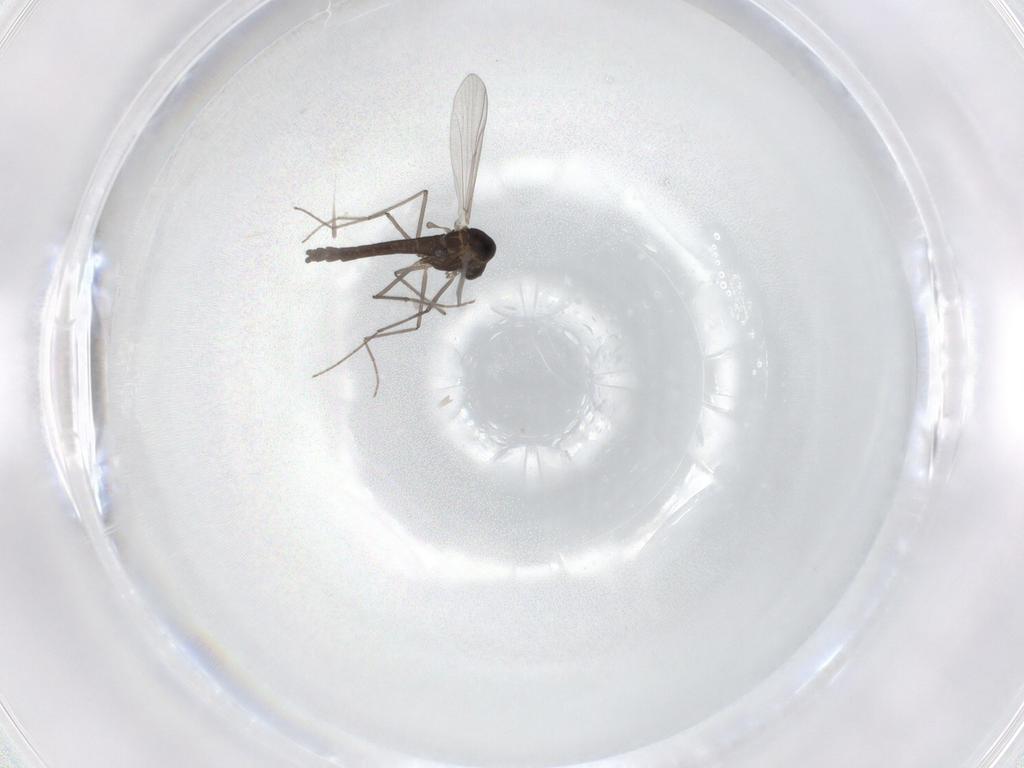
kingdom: Animalia
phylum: Arthropoda
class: Insecta
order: Diptera
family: Chironomidae
